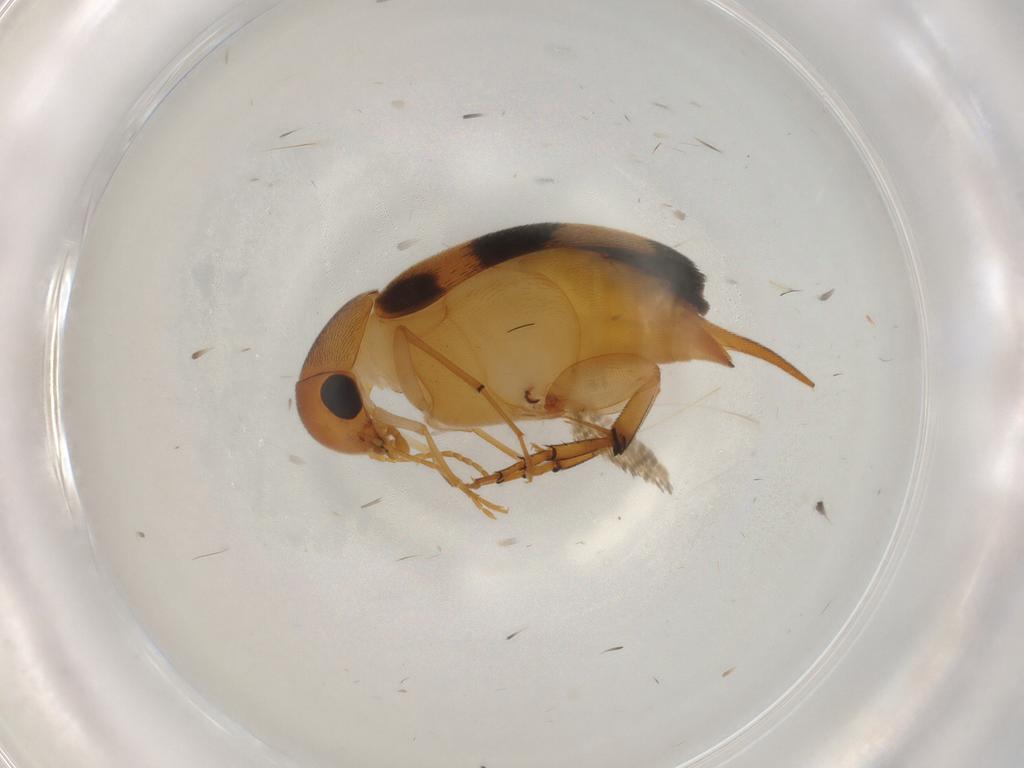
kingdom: Animalia
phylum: Arthropoda
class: Insecta
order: Coleoptera
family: Mordellidae
